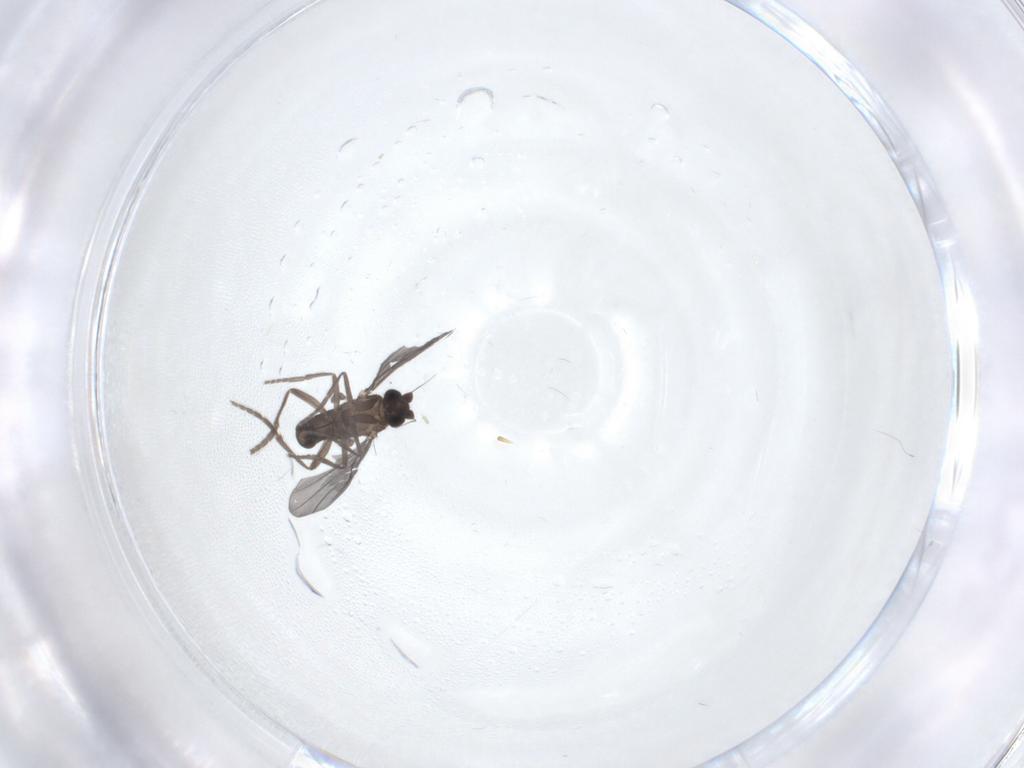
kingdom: Animalia
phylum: Arthropoda
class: Insecta
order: Diptera
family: Phoridae
